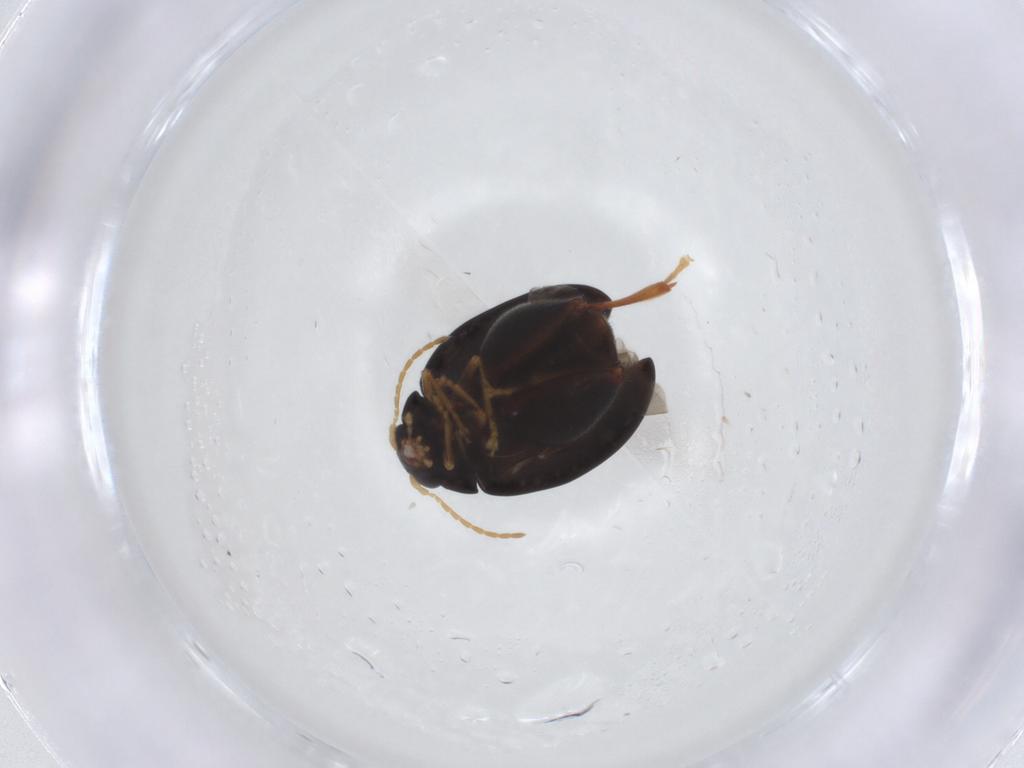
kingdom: Animalia
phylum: Arthropoda
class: Insecta
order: Coleoptera
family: Chrysomelidae
